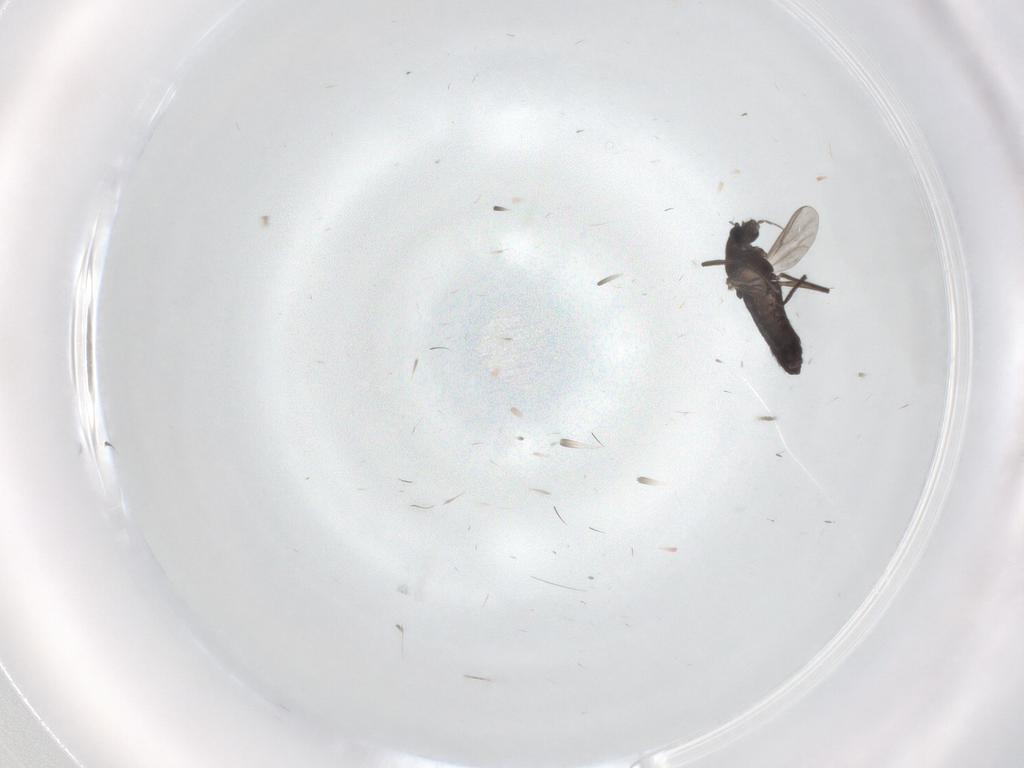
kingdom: Animalia
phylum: Arthropoda
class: Insecta
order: Diptera
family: Chironomidae
